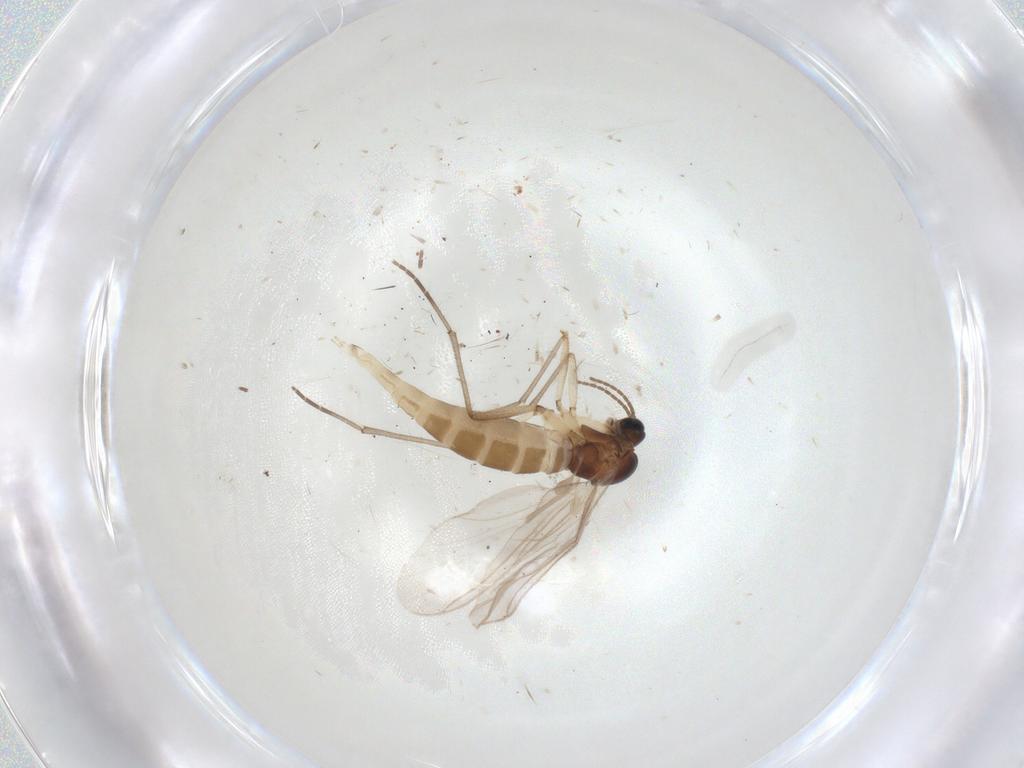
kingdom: Animalia
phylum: Arthropoda
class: Insecta
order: Diptera
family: Sciaridae
